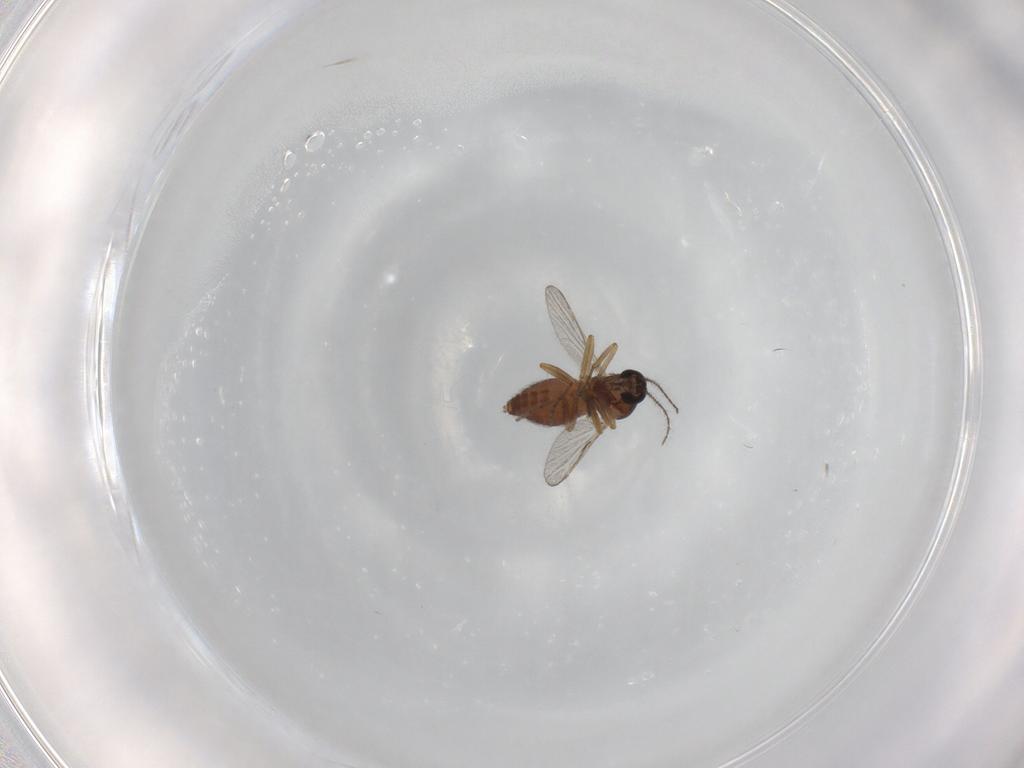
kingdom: Animalia
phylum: Arthropoda
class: Insecta
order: Diptera
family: Ceratopogonidae
